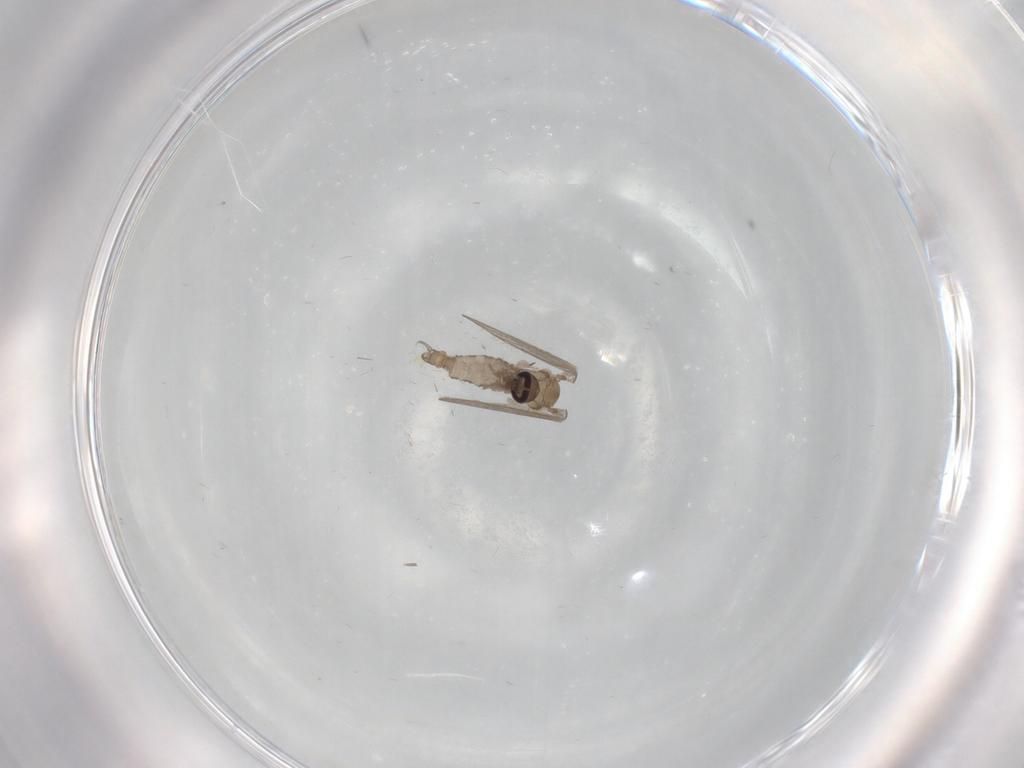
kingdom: Animalia
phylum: Arthropoda
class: Insecta
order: Diptera
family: Psychodidae
